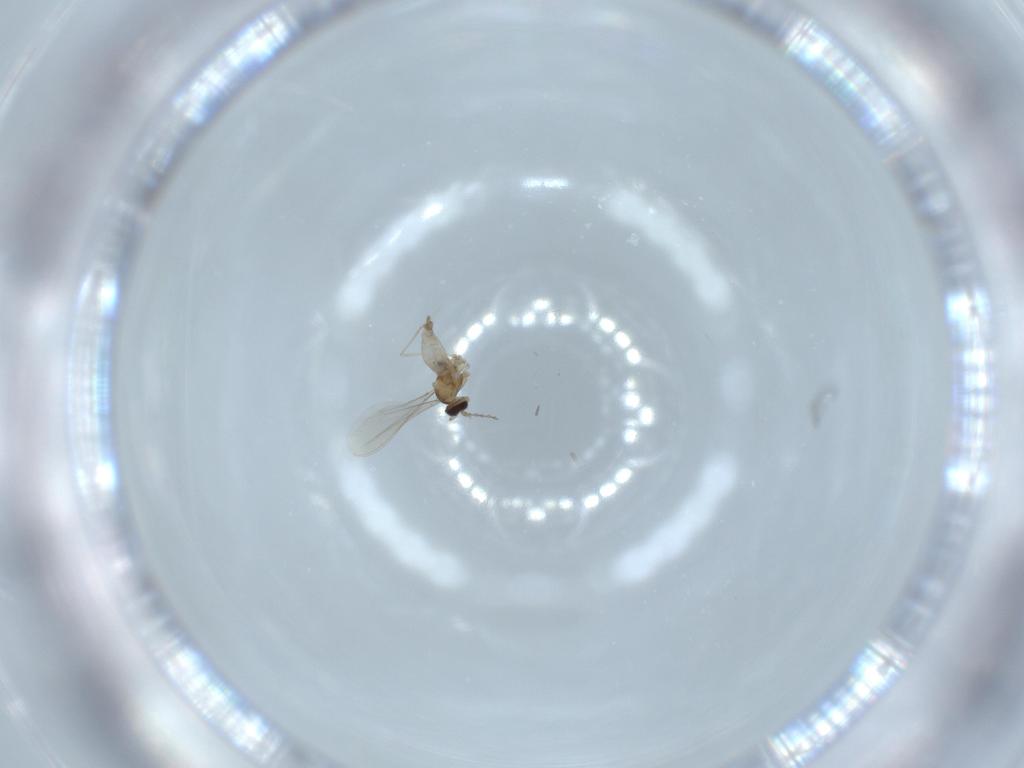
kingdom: Animalia
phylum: Arthropoda
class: Insecta
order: Diptera
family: Cecidomyiidae
